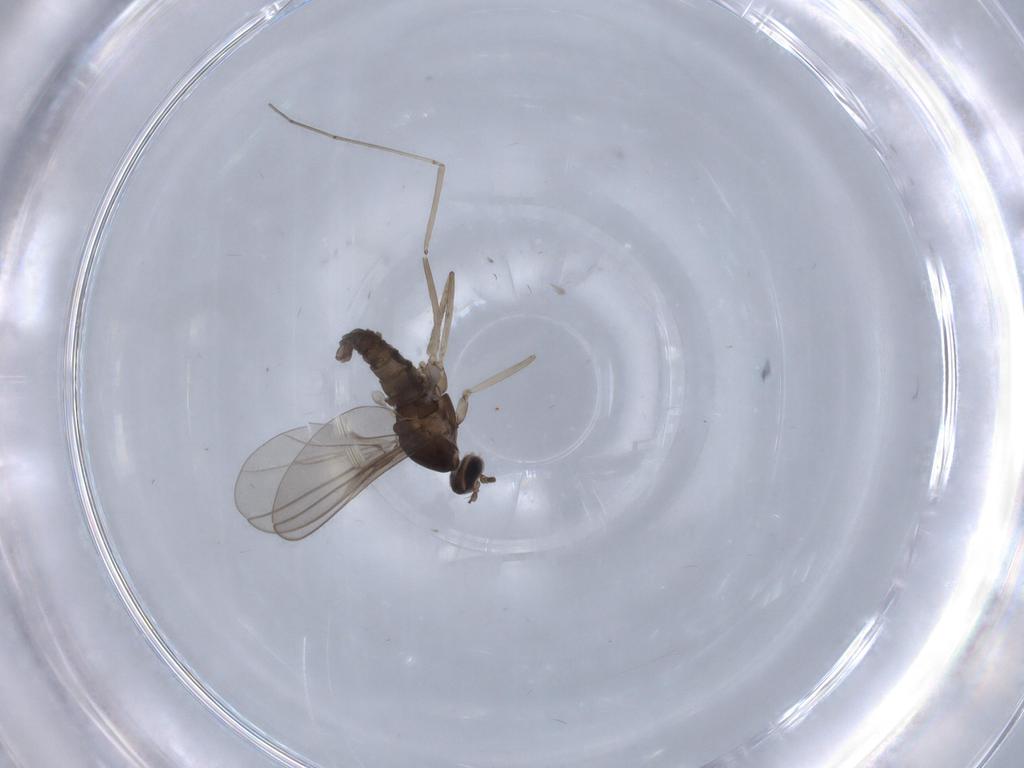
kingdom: Animalia
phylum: Arthropoda
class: Insecta
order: Diptera
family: Cecidomyiidae
